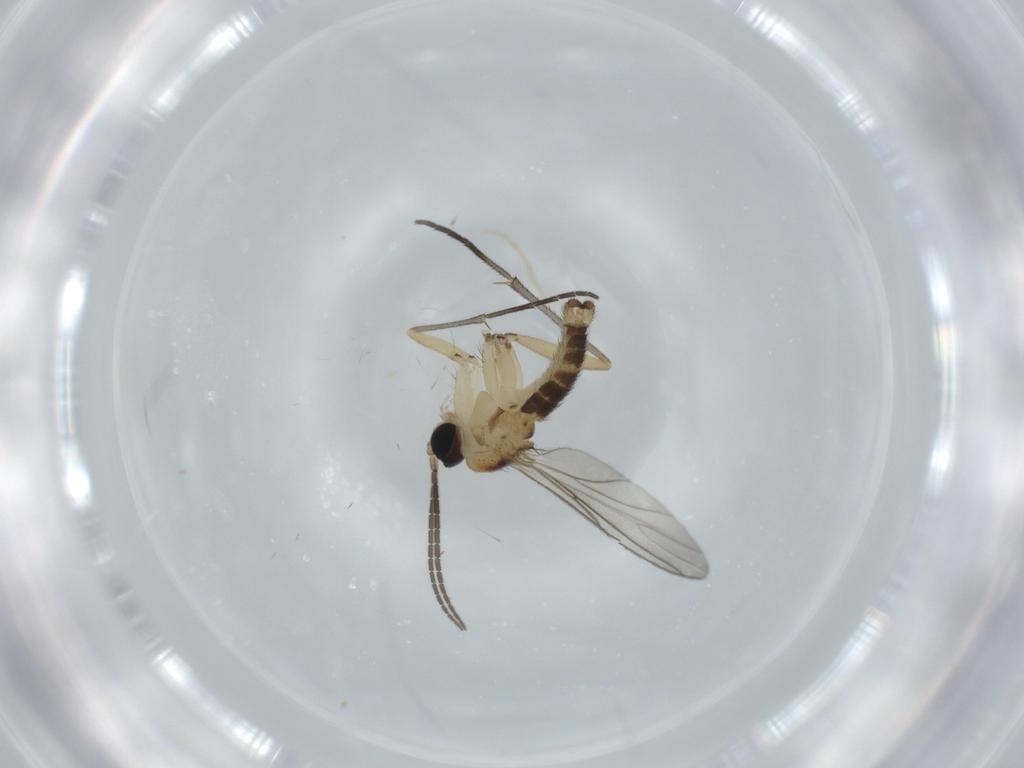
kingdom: Animalia
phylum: Arthropoda
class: Insecta
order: Diptera
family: Sciaridae
